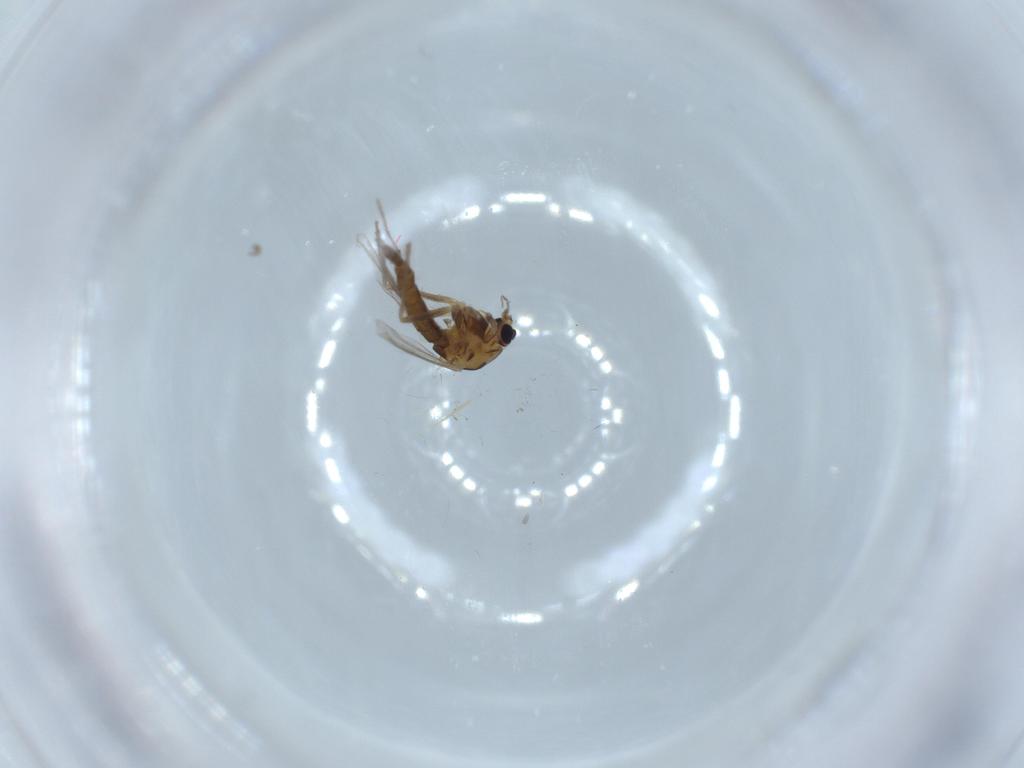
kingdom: Animalia
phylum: Arthropoda
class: Insecta
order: Diptera
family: Chironomidae
